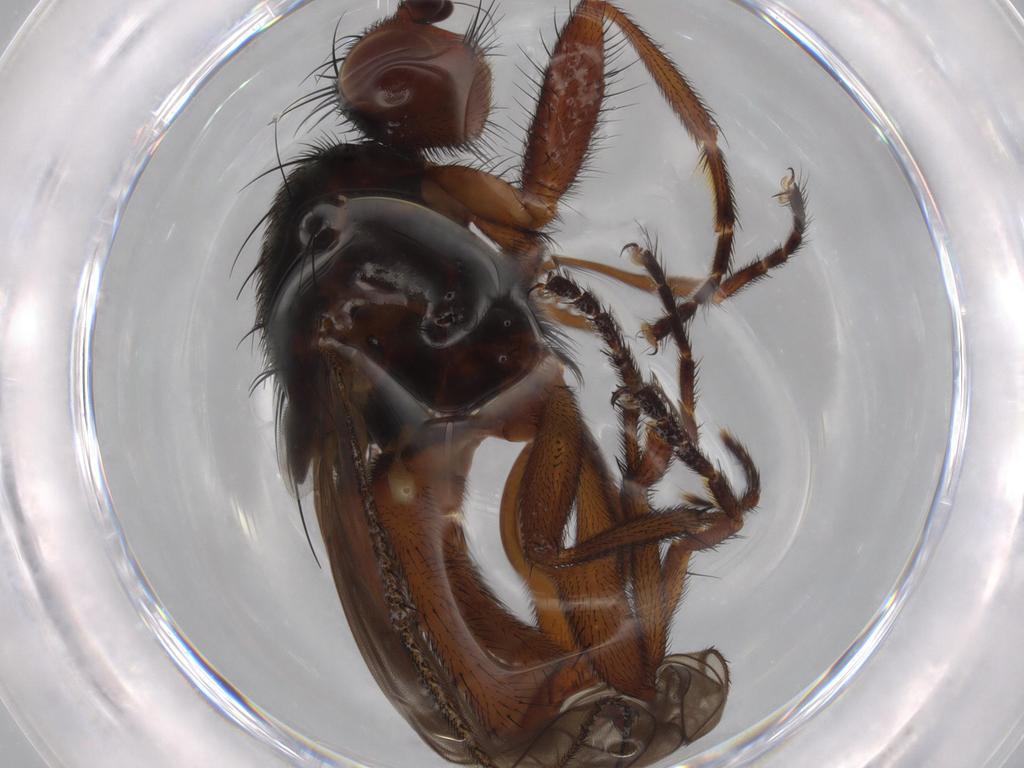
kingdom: Animalia
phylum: Arthropoda
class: Insecta
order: Diptera
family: Heleomyzidae
